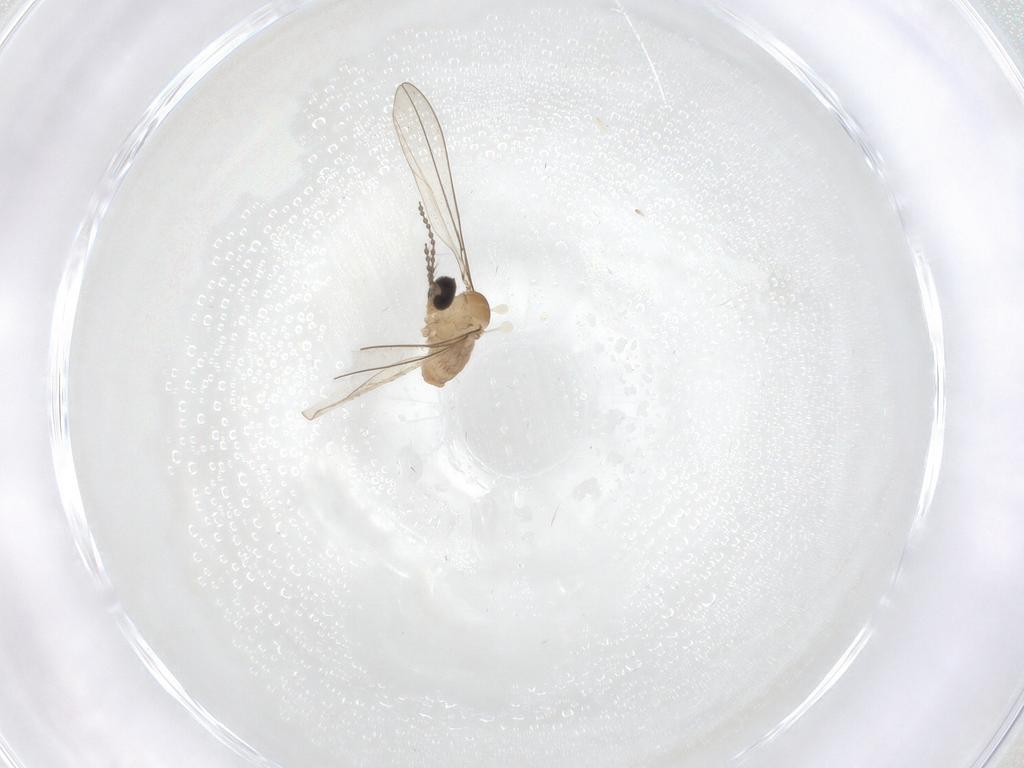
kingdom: Animalia
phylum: Arthropoda
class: Insecta
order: Diptera
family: Cecidomyiidae
